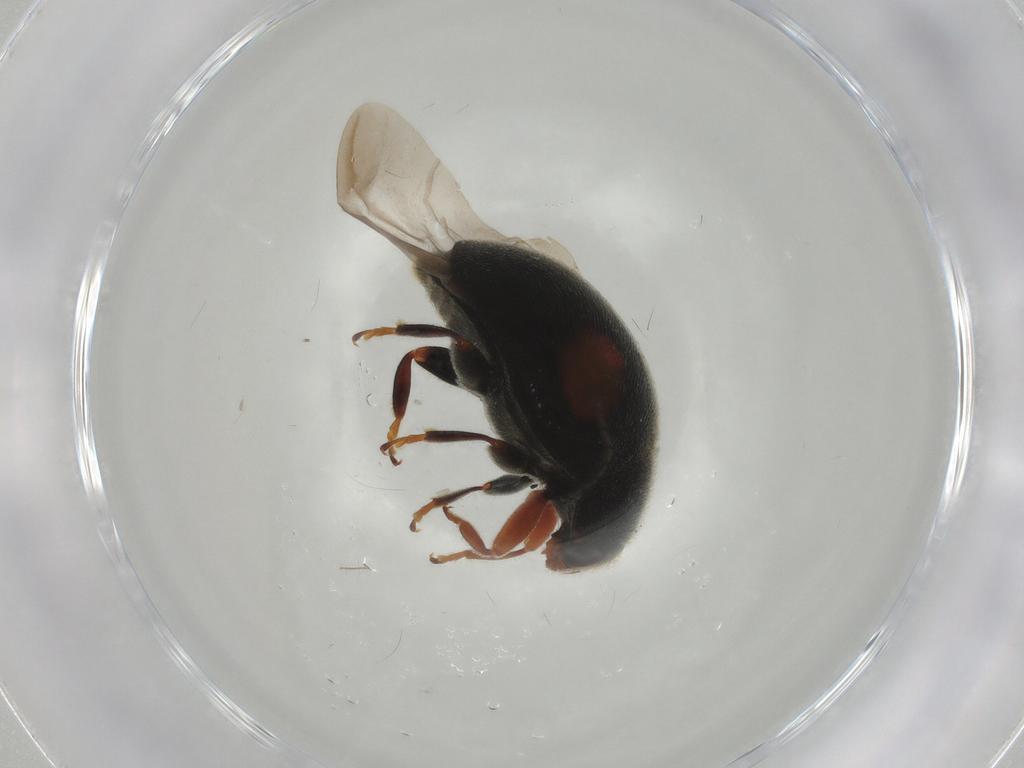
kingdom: Animalia
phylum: Arthropoda
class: Insecta
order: Coleoptera
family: Coccinellidae
